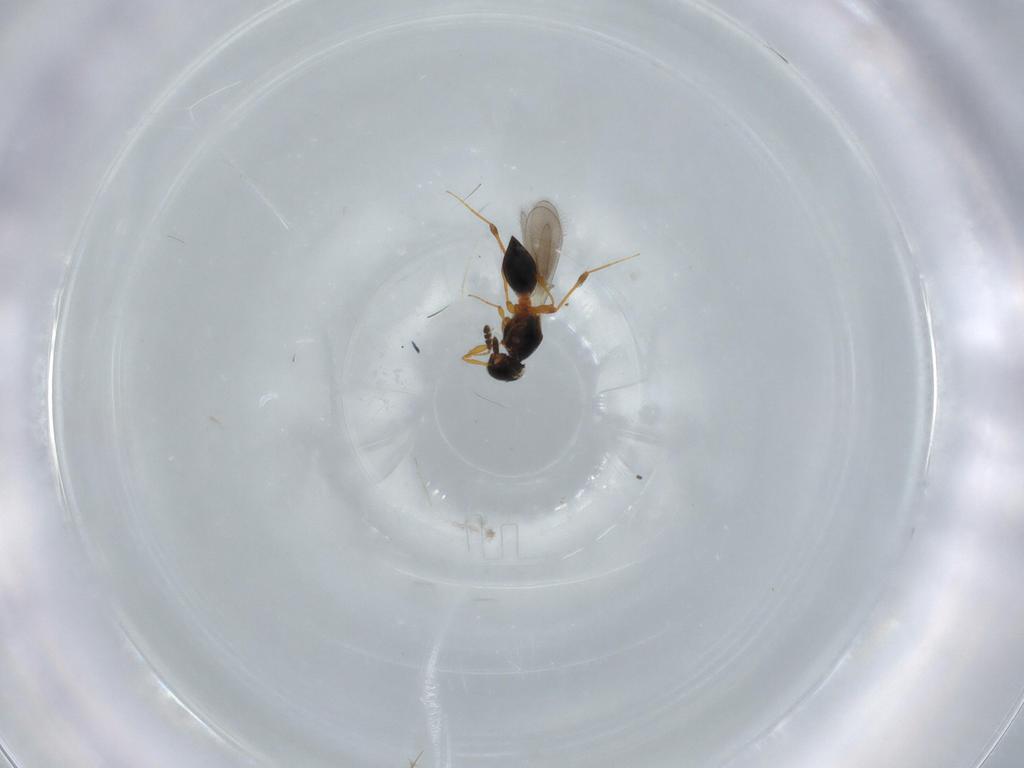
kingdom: Animalia
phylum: Arthropoda
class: Insecta
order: Hymenoptera
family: Platygastridae
